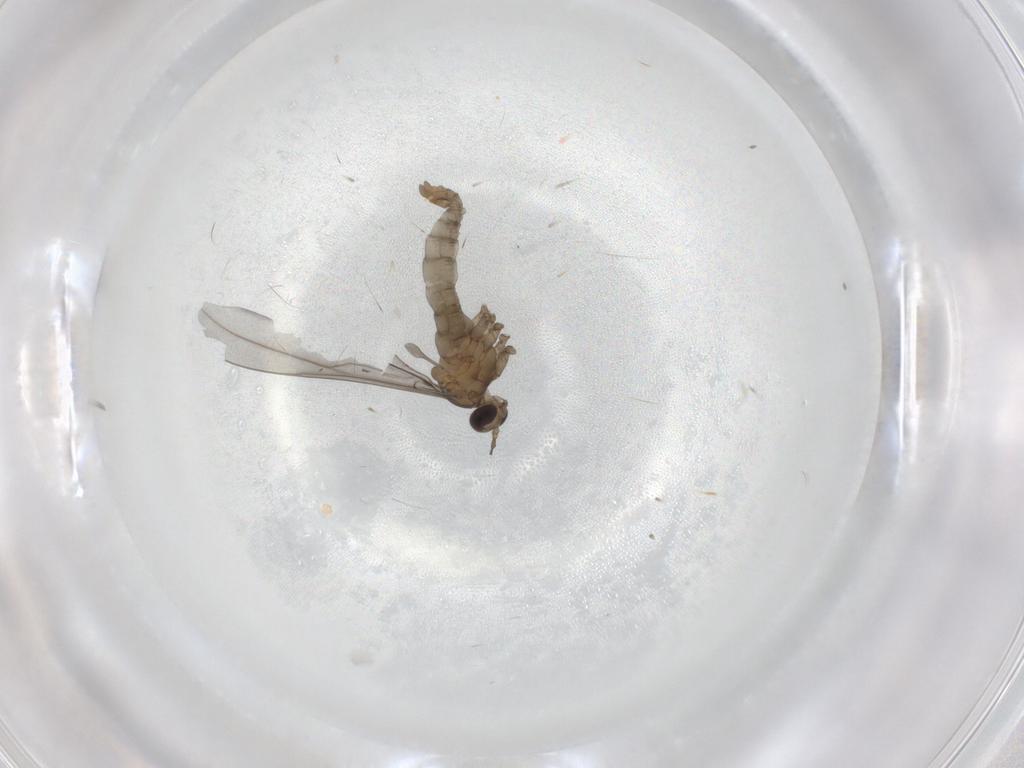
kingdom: Animalia
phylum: Arthropoda
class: Insecta
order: Diptera
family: Cecidomyiidae
